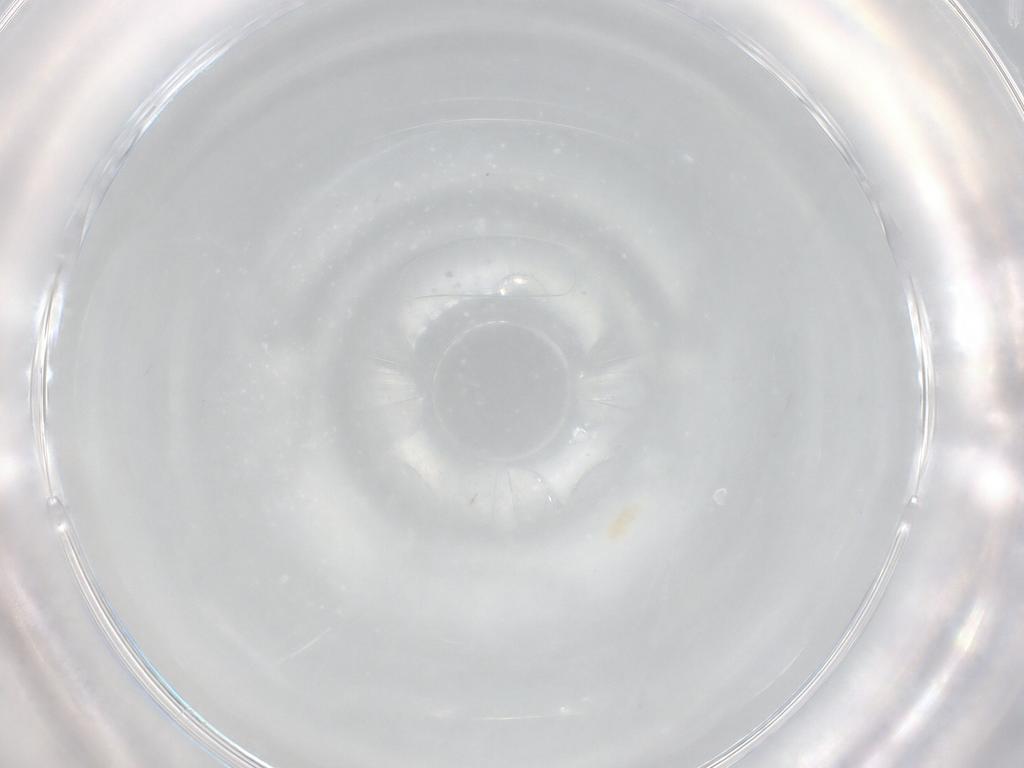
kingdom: Animalia
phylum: Arthropoda
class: Arachnida
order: Trombidiformes
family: Eupodidae
